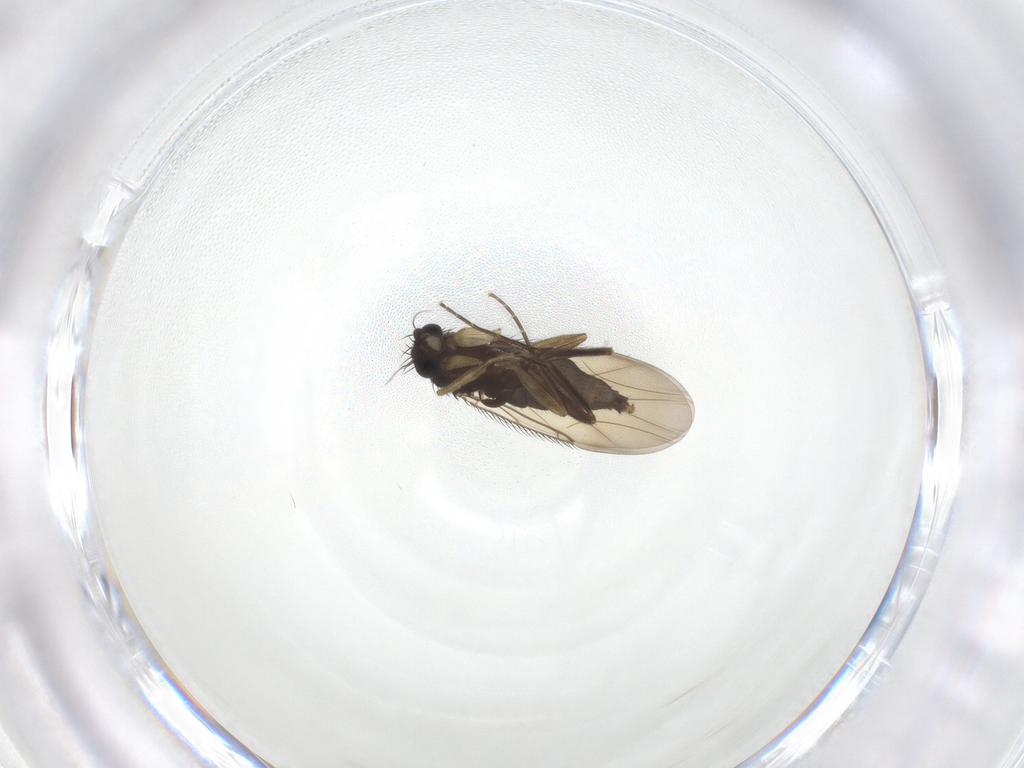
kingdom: Animalia
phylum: Arthropoda
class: Insecta
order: Diptera
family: Phoridae
